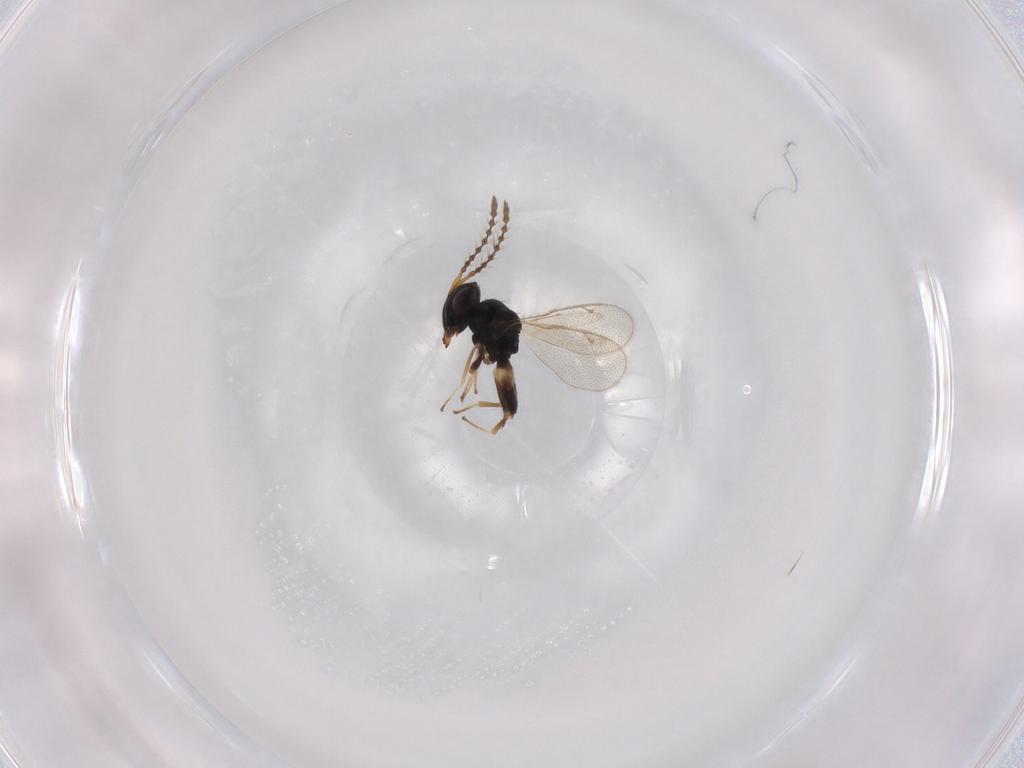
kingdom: Animalia
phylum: Arthropoda
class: Insecta
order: Hymenoptera
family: Pteromalidae
